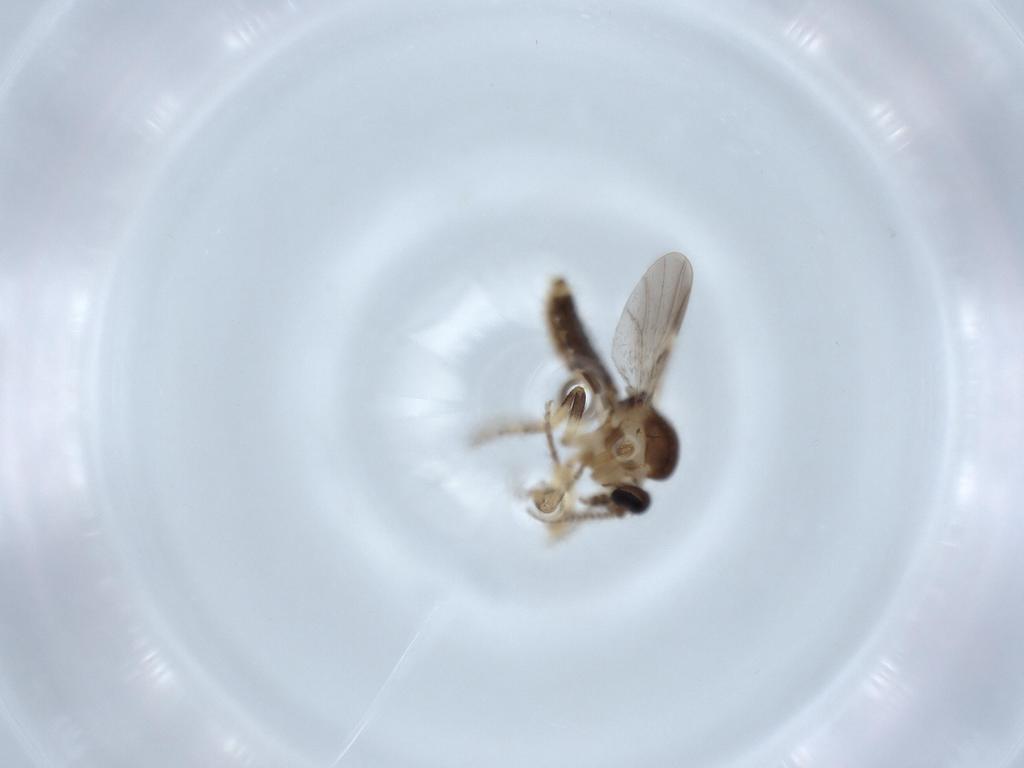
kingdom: Animalia
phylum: Arthropoda
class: Insecta
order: Diptera
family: Ceratopogonidae
